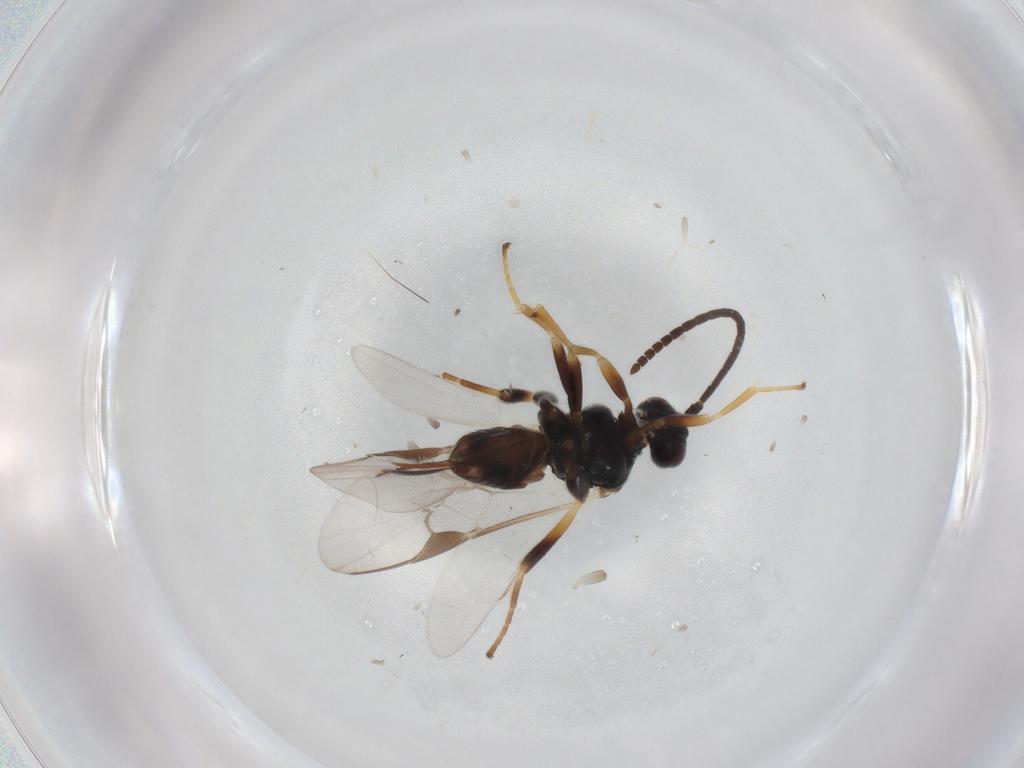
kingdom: Animalia
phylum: Arthropoda
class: Insecta
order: Hymenoptera
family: Braconidae
